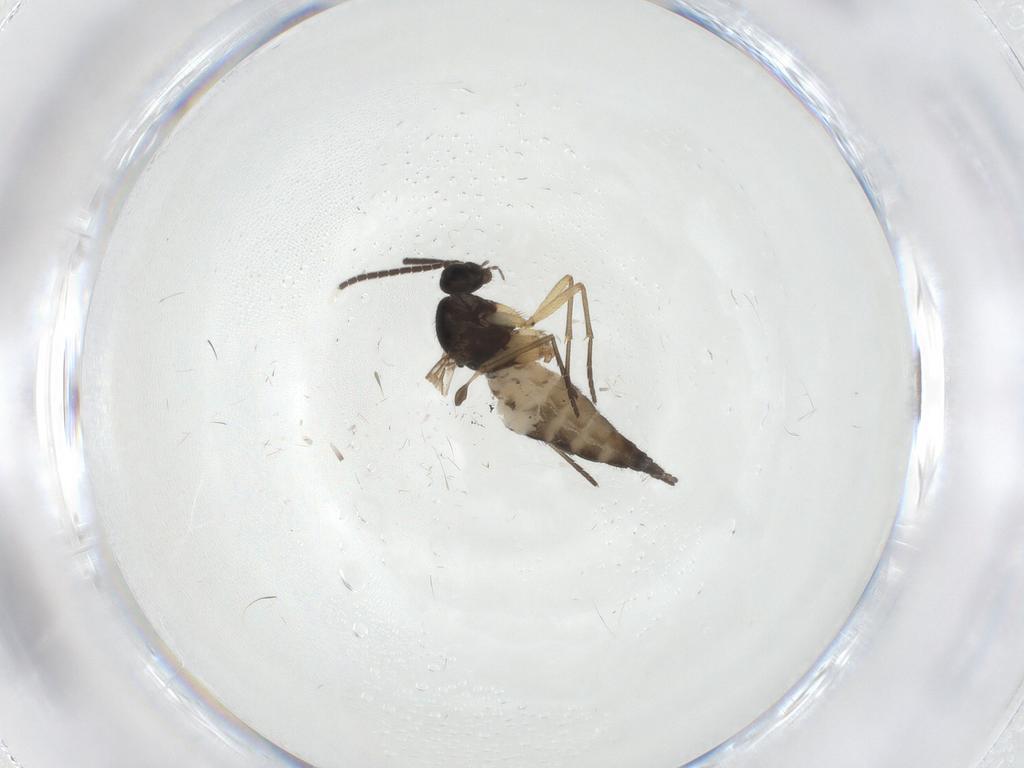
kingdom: Animalia
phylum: Arthropoda
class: Insecta
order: Diptera
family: Sciaridae
